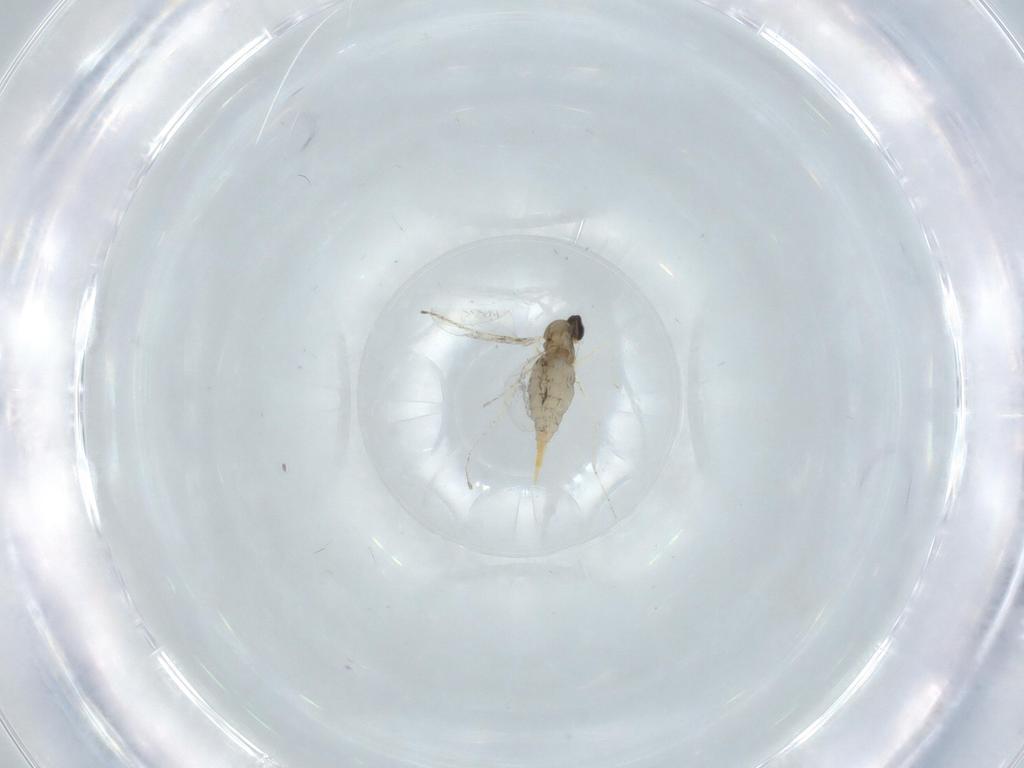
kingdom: Animalia
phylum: Arthropoda
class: Insecta
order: Diptera
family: Cecidomyiidae
